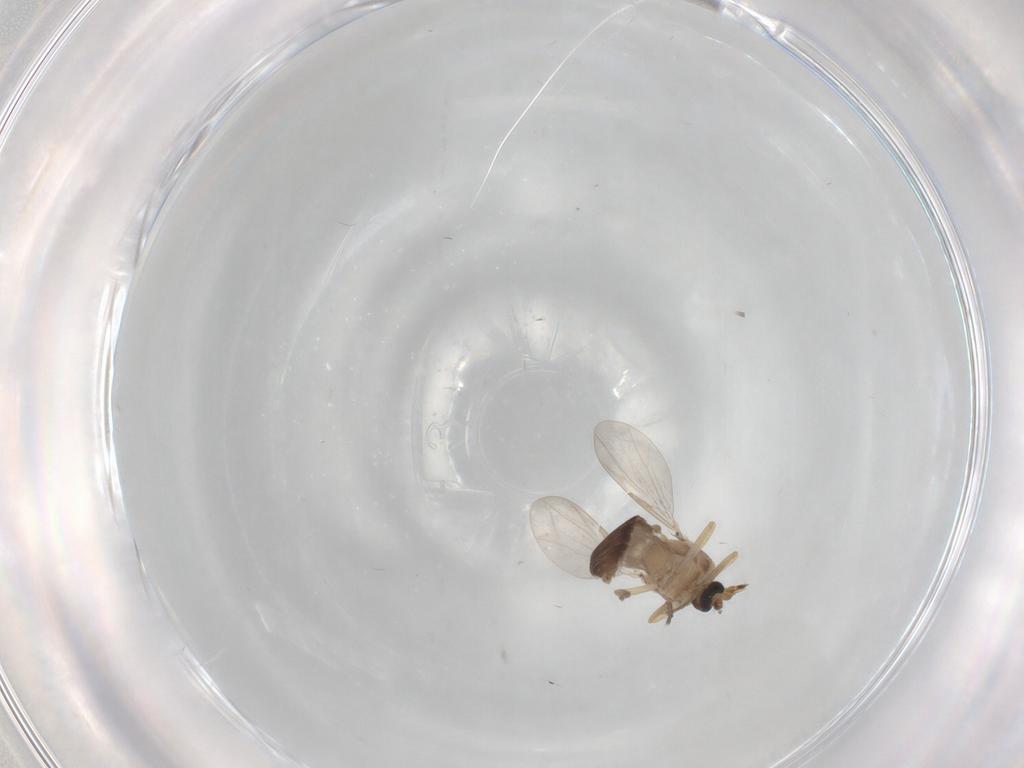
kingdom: Animalia
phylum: Arthropoda
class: Insecta
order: Diptera
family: Ceratopogonidae
